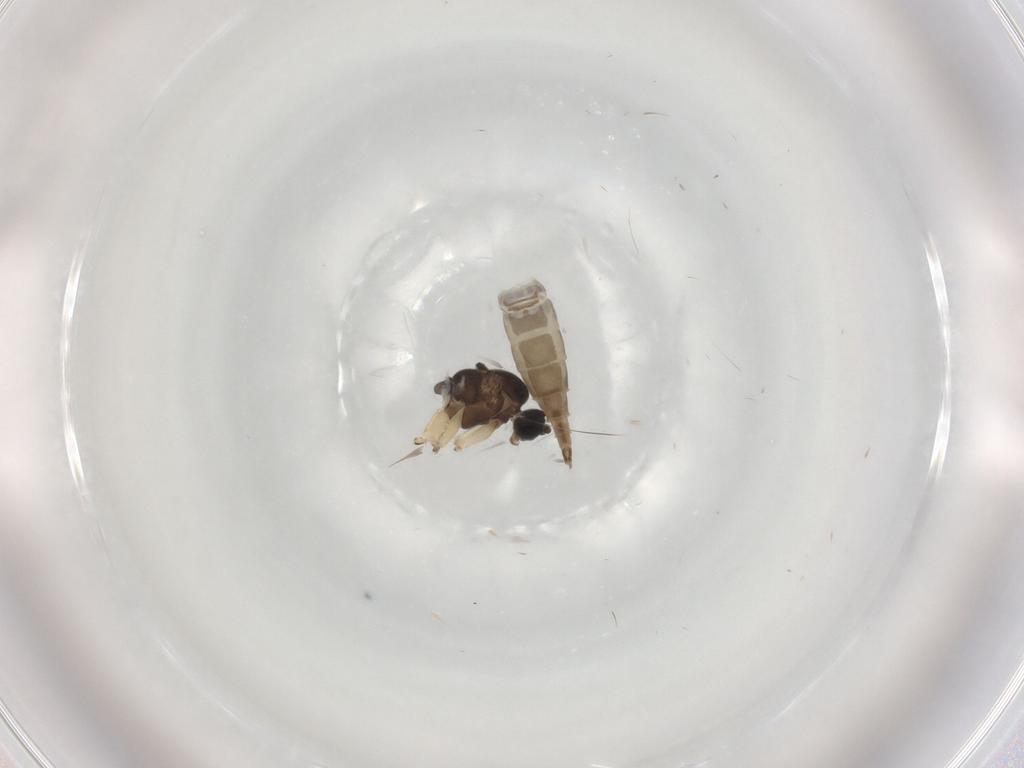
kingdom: Animalia
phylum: Arthropoda
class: Insecta
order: Diptera
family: Sciaridae
